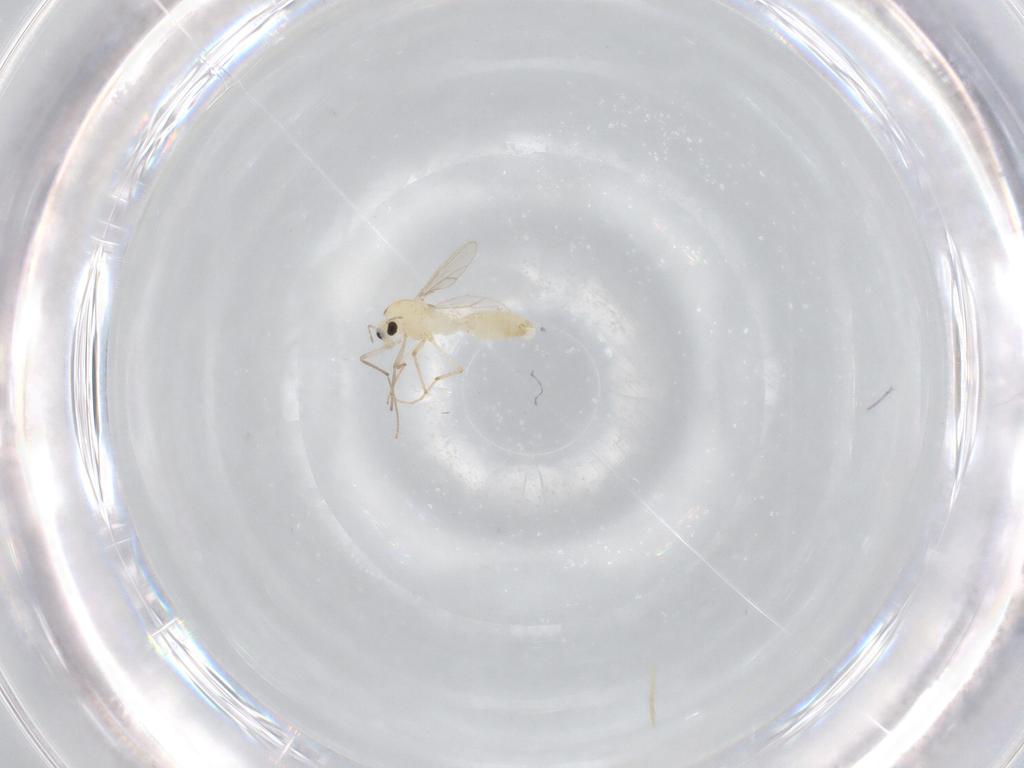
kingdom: Animalia
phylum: Arthropoda
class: Insecta
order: Diptera
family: Chironomidae
